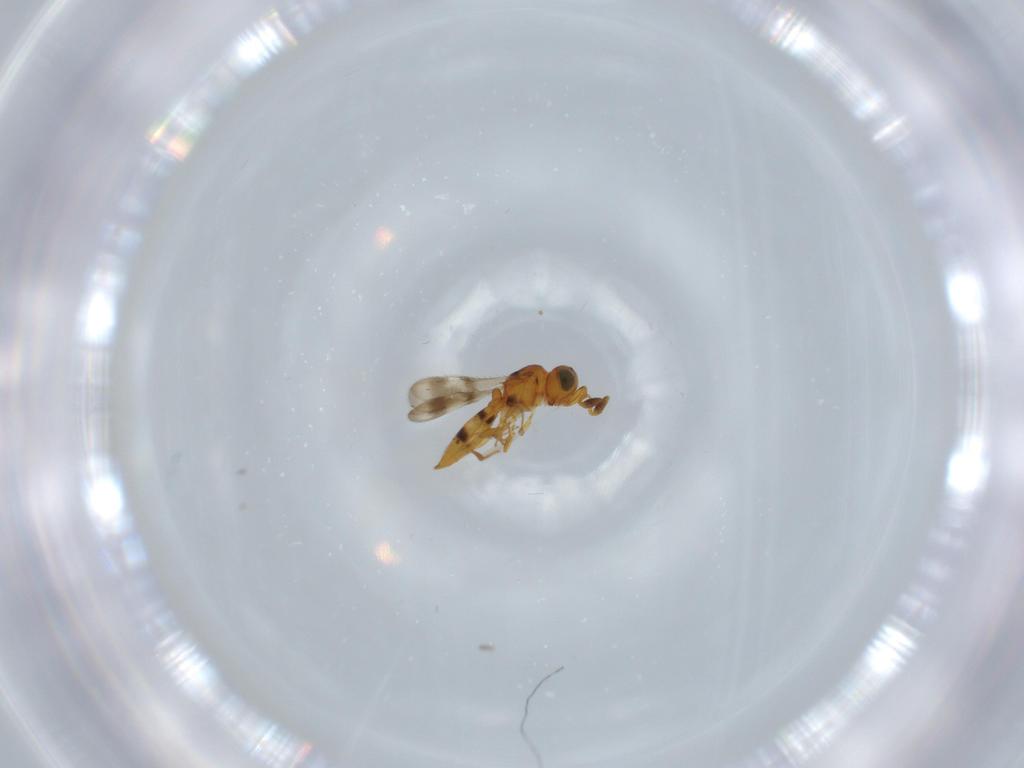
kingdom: Animalia
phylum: Arthropoda
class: Insecta
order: Hymenoptera
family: Scelionidae
